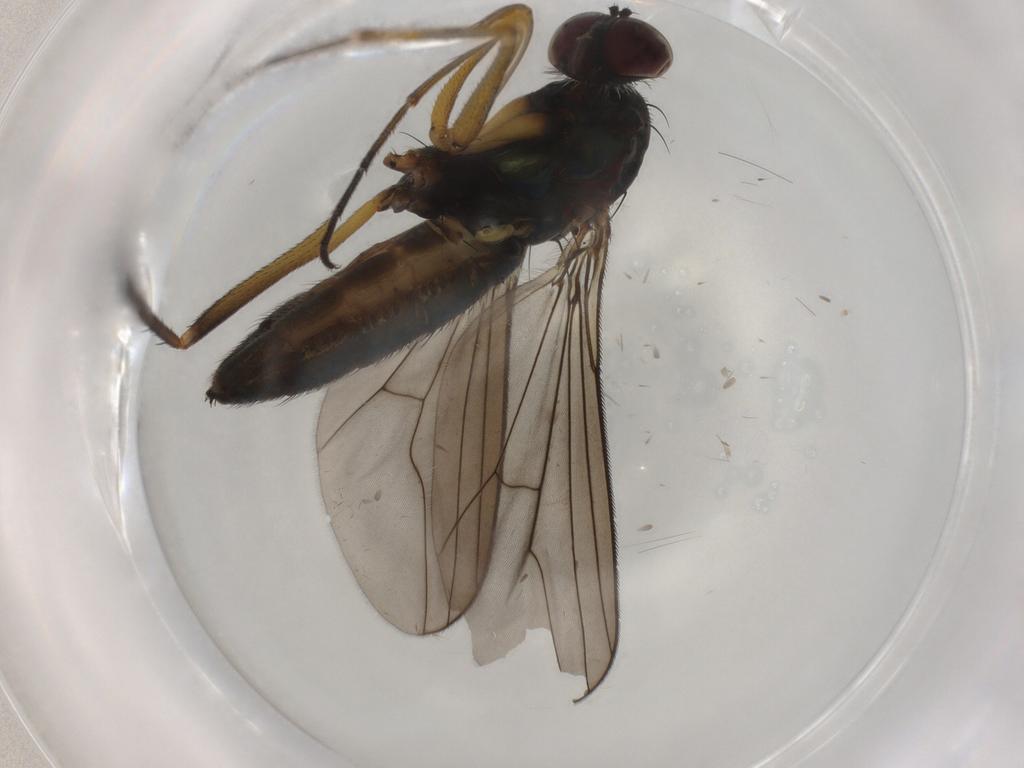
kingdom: Animalia
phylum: Arthropoda
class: Insecta
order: Diptera
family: Dolichopodidae
